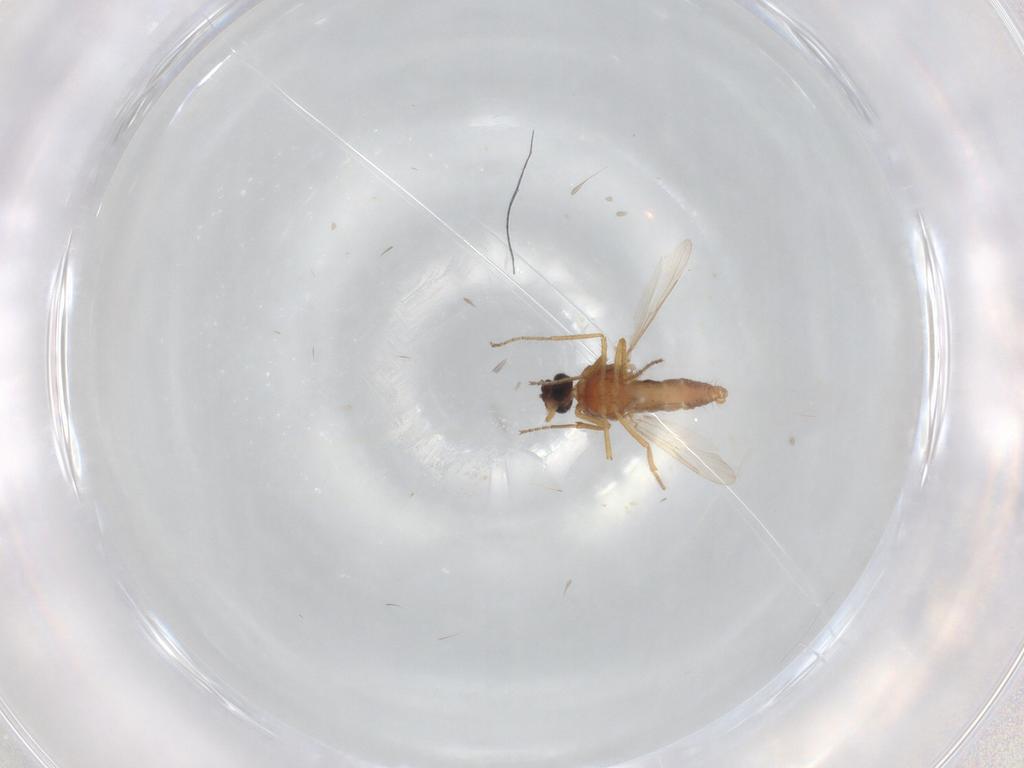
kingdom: Animalia
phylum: Arthropoda
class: Insecta
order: Diptera
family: Ceratopogonidae
